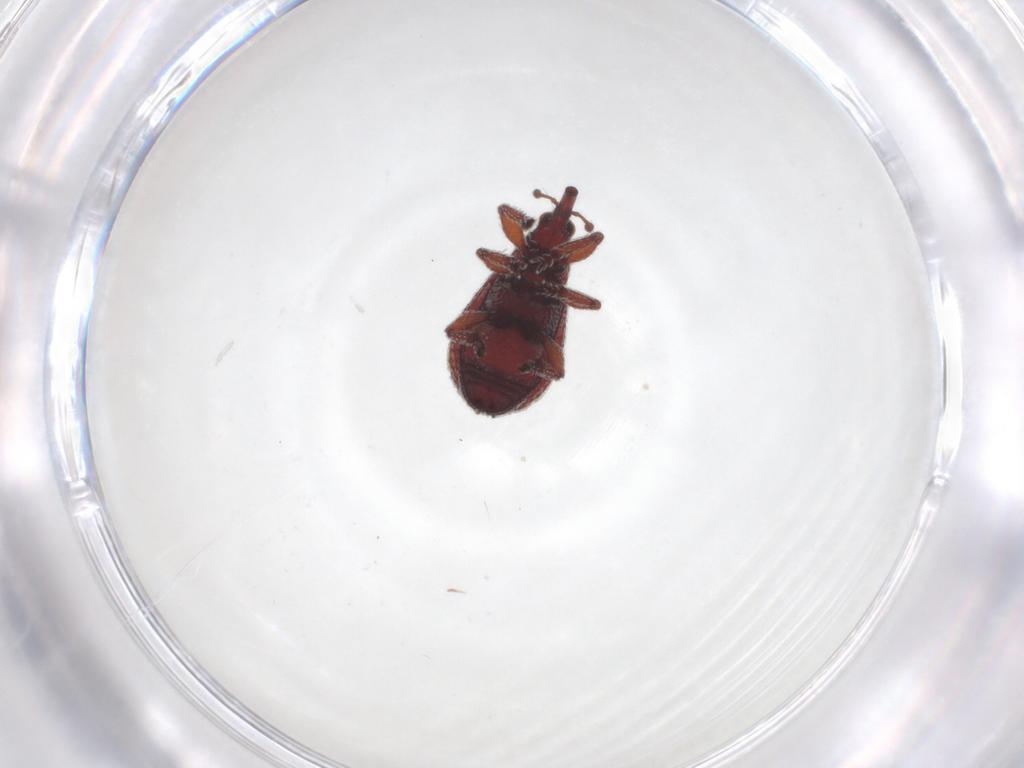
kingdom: Animalia
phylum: Arthropoda
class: Insecta
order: Coleoptera
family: Brentidae
